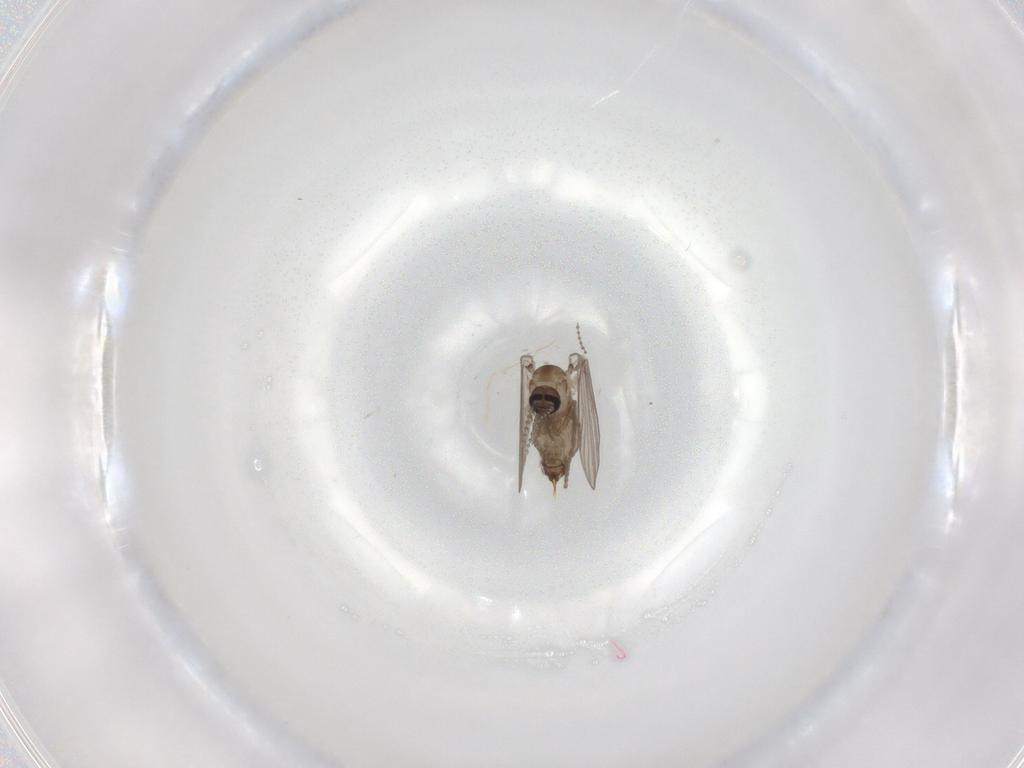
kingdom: Animalia
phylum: Arthropoda
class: Insecta
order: Diptera
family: Psychodidae
